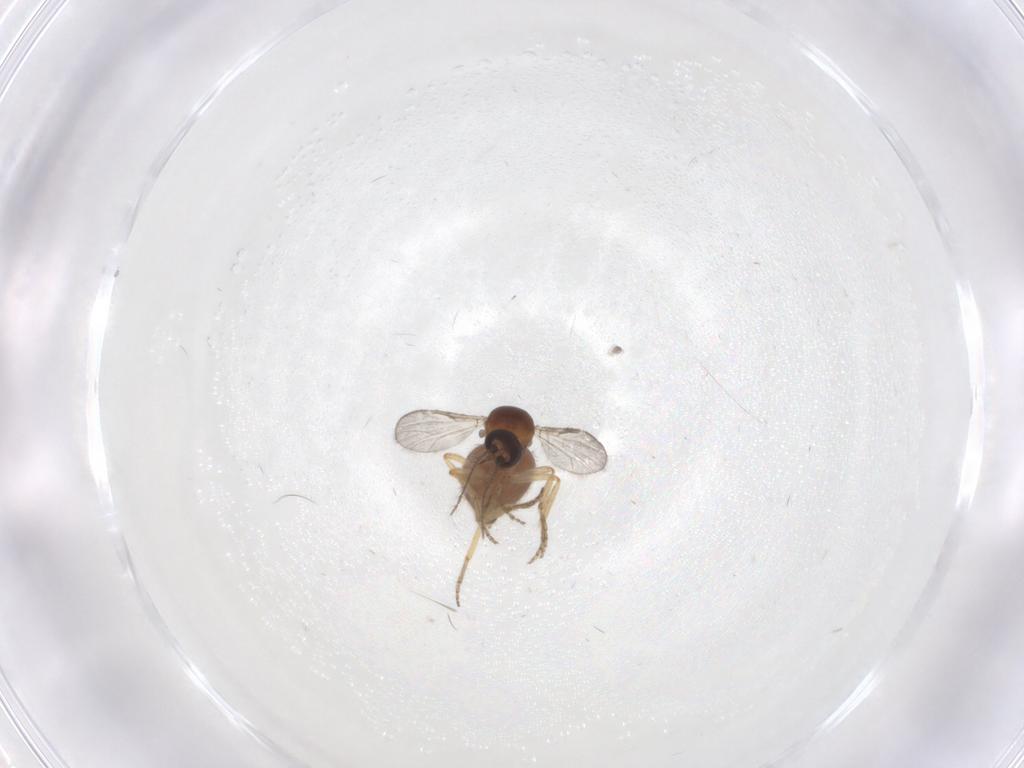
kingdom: Animalia
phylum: Arthropoda
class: Insecta
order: Diptera
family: Ceratopogonidae
